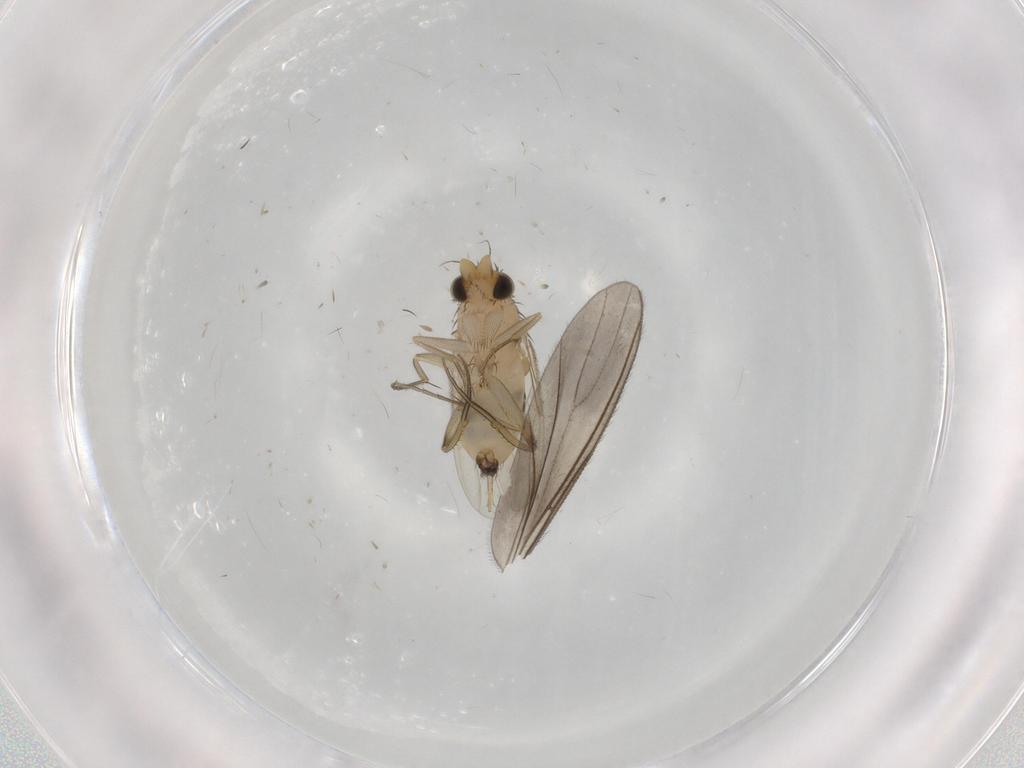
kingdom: Animalia
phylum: Arthropoda
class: Insecta
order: Diptera
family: Phoridae
